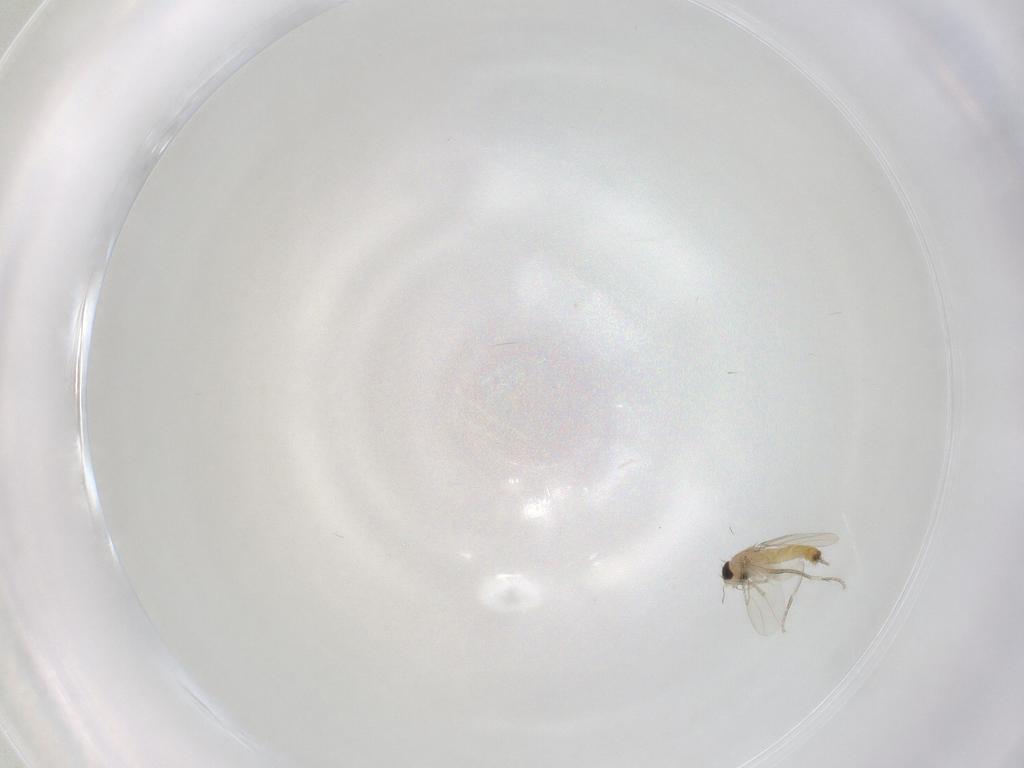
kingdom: Animalia
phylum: Arthropoda
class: Insecta
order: Diptera
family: Phoridae
